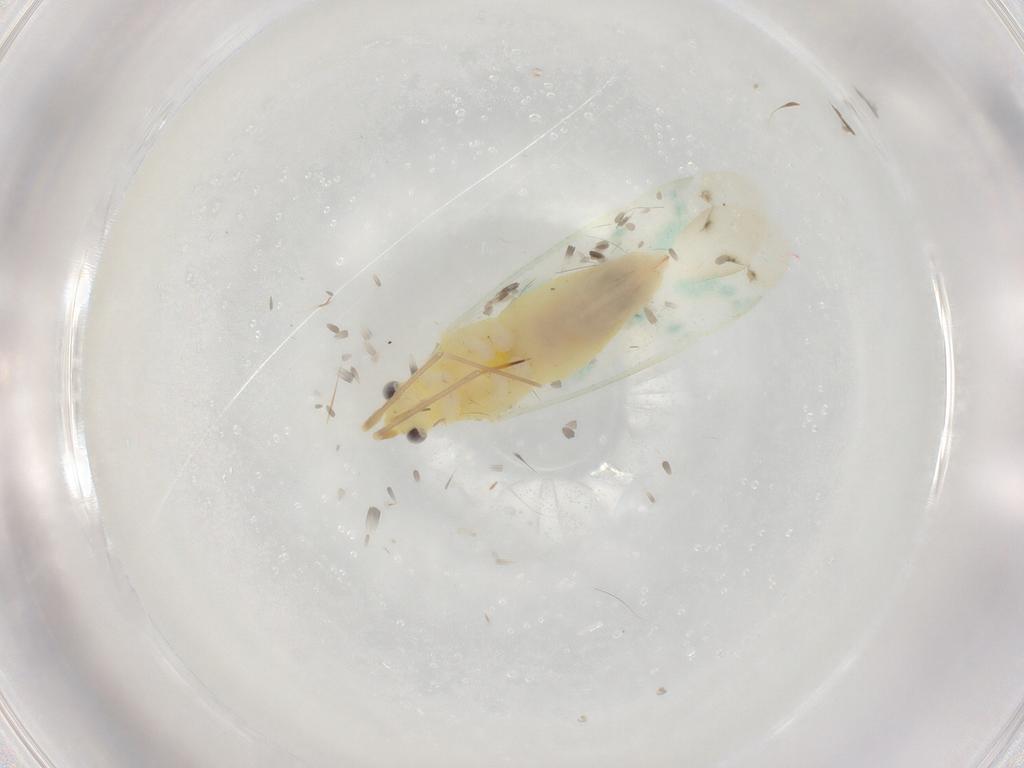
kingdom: Animalia
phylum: Arthropoda
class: Insecta
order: Hemiptera
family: Miridae
